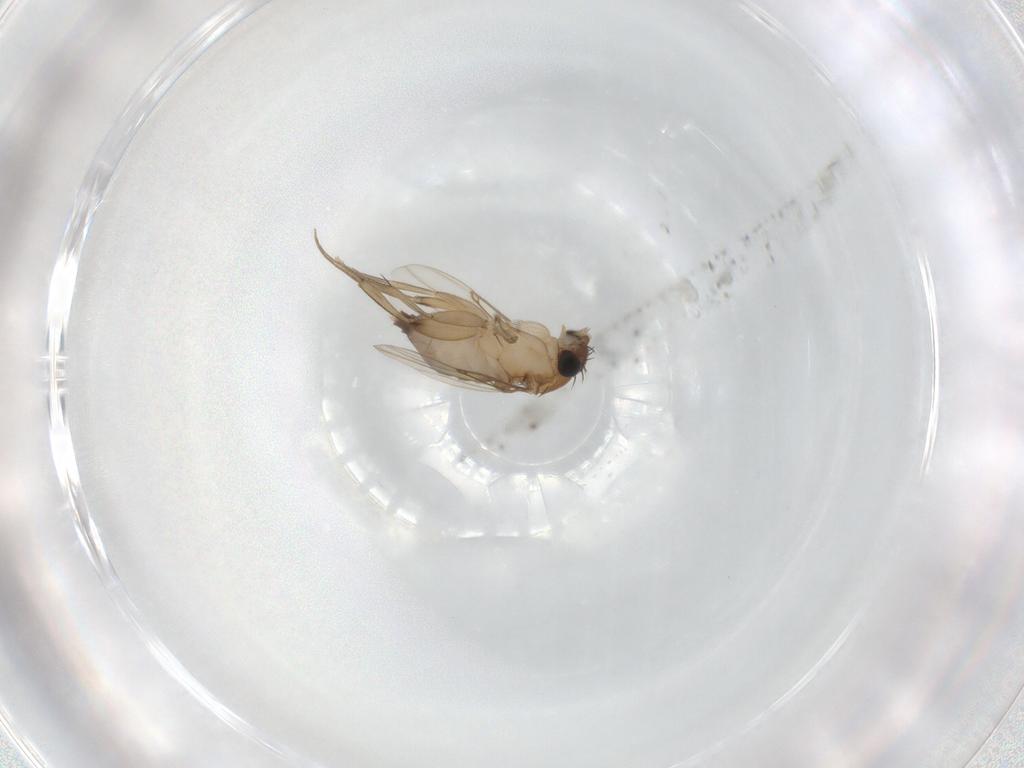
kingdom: Animalia
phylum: Arthropoda
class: Insecta
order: Diptera
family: Phoridae
